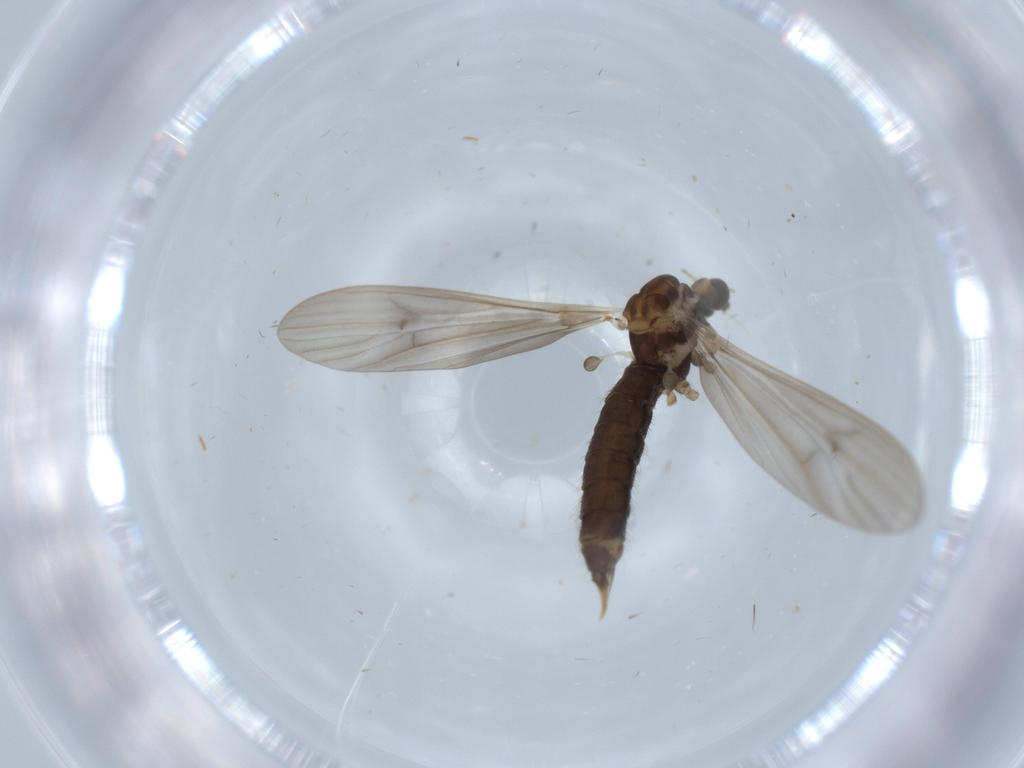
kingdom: Animalia
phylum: Arthropoda
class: Insecta
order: Diptera
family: Limoniidae
